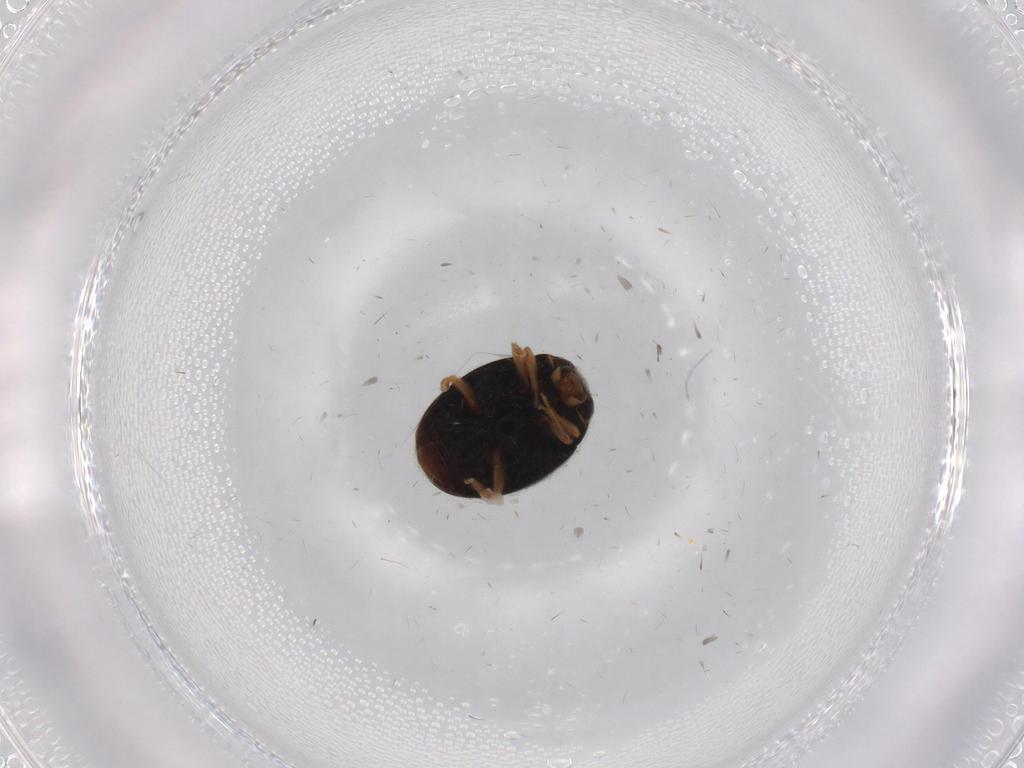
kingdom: Animalia
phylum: Arthropoda
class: Insecta
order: Coleoptera
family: Coccinellidae
